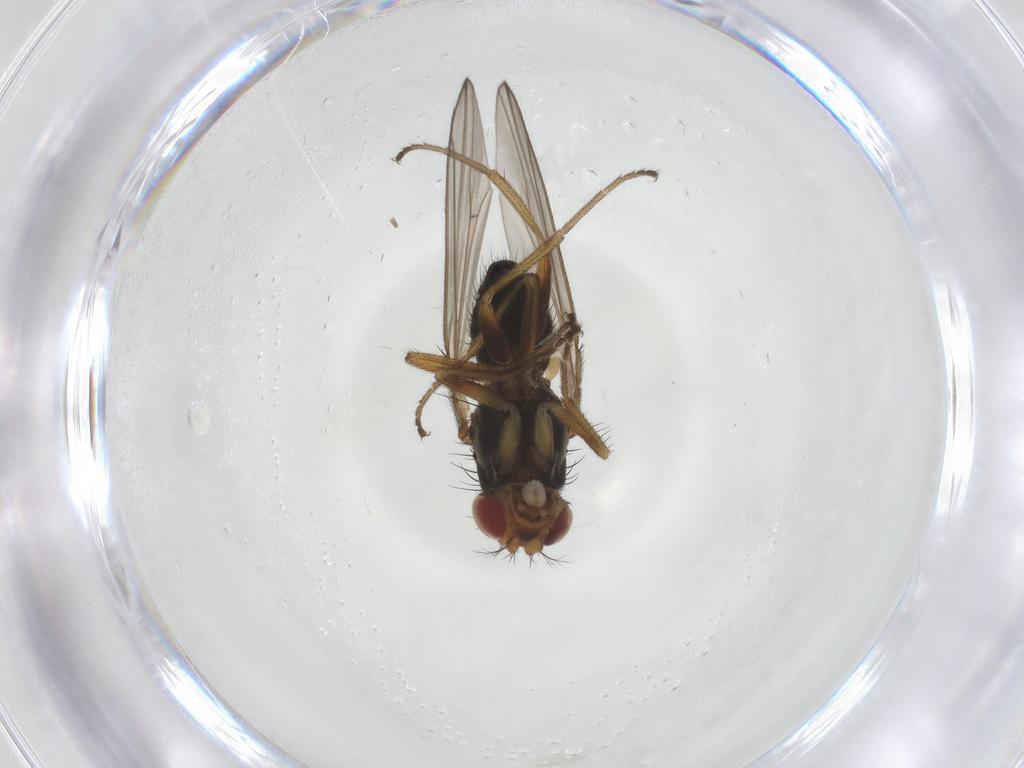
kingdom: Animalia
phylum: Arthropoda
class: Insecta
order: Diptera
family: Drosophilidae
